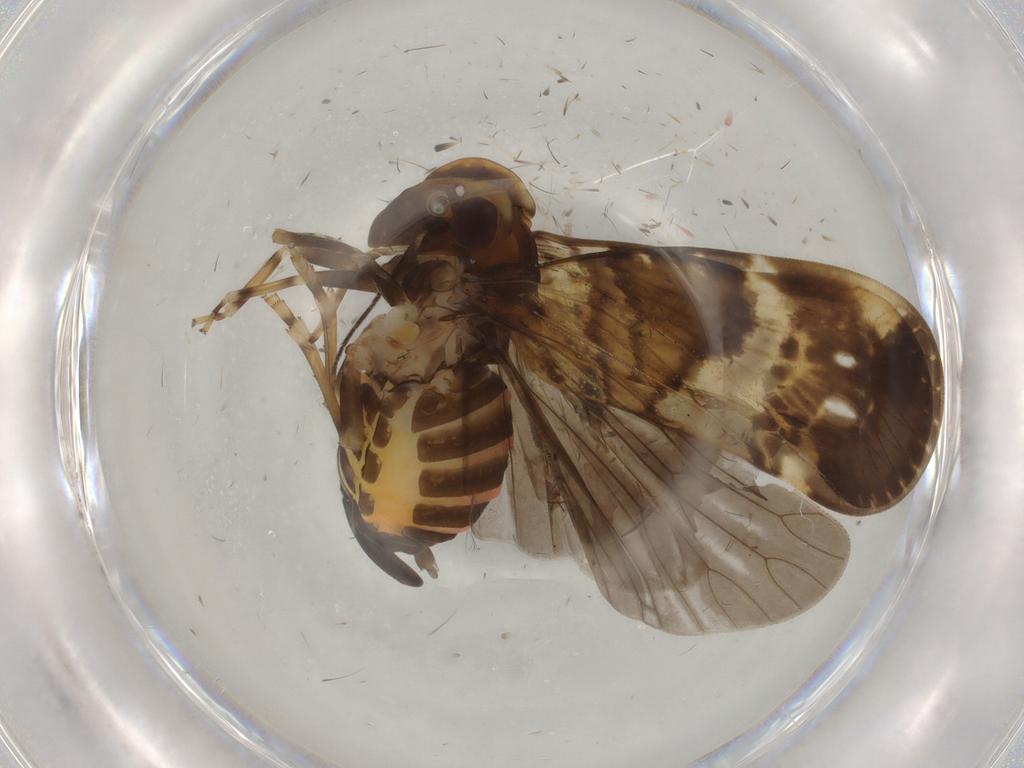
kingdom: Animalia
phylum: Arthropoda
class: Insecta
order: Hemiptera
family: Cixiidae
